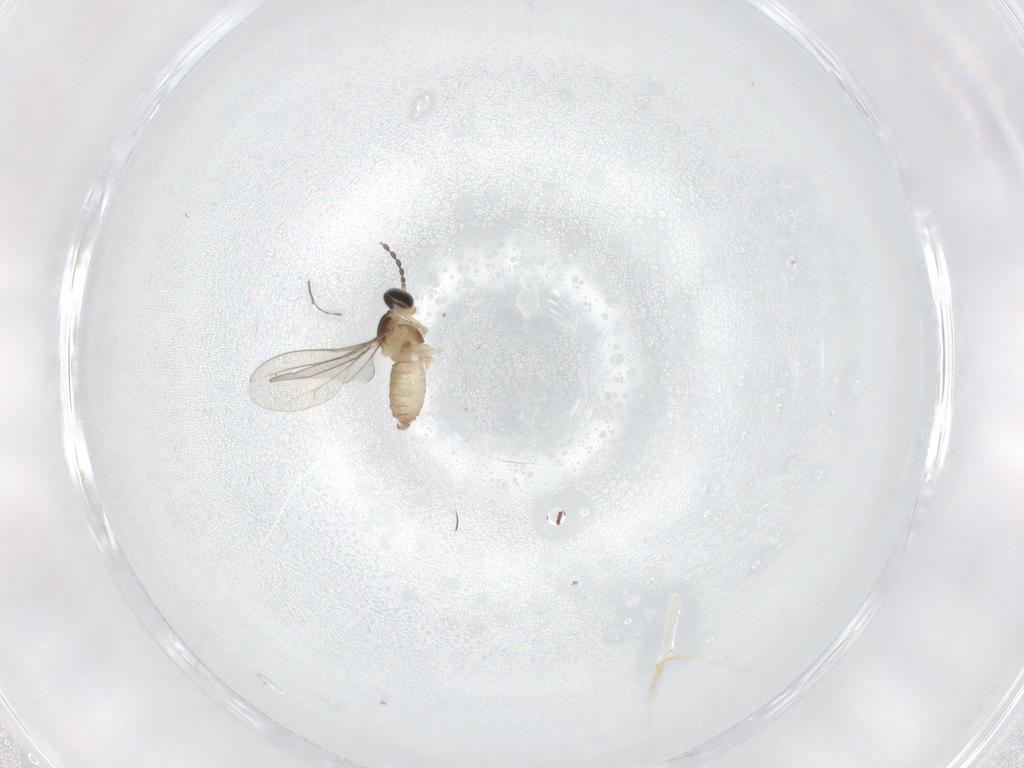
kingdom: Animalia
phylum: Arthropoda
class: Insecta
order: Diptera
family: Cecidomyiidae
